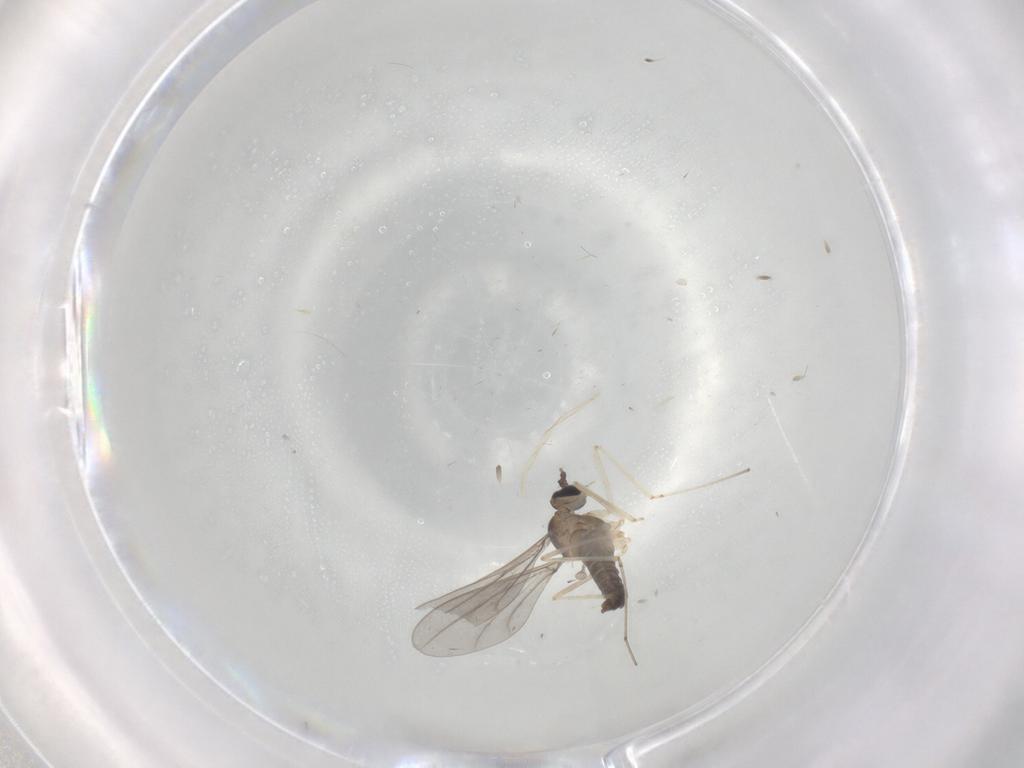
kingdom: Animalia
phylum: Arthropoda
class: Insecta
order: Diptera
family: Cecidomyiidae
